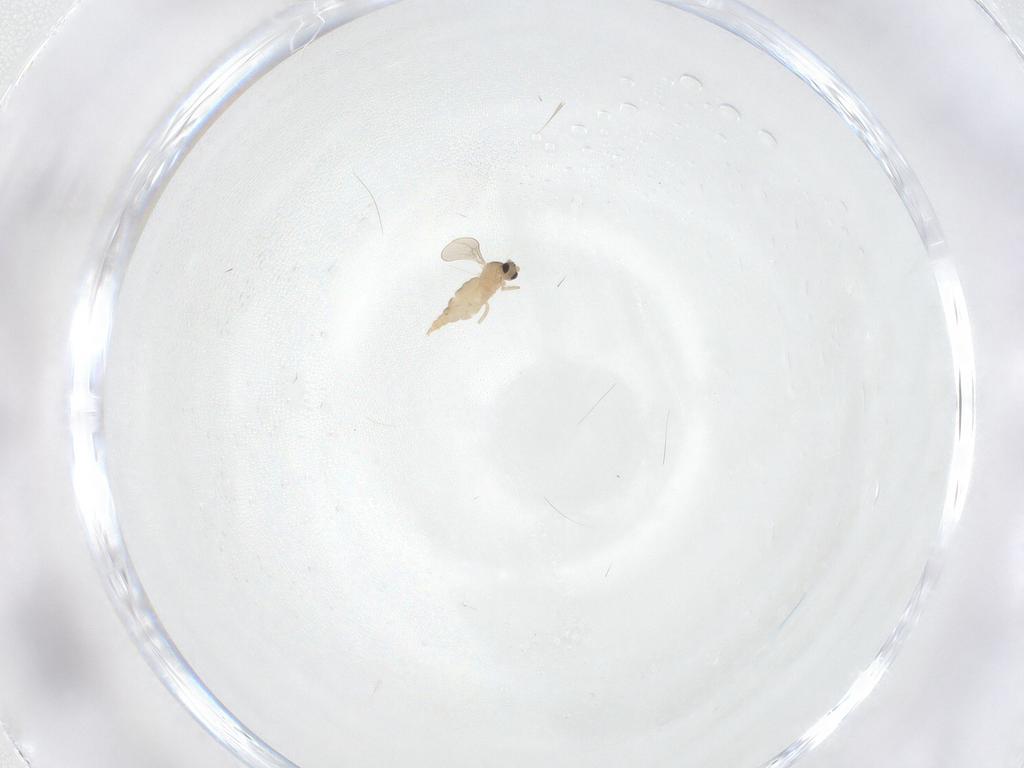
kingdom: Animalia
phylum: Arthropoda
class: Insecta
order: Diptera
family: Cecidomyiidae
